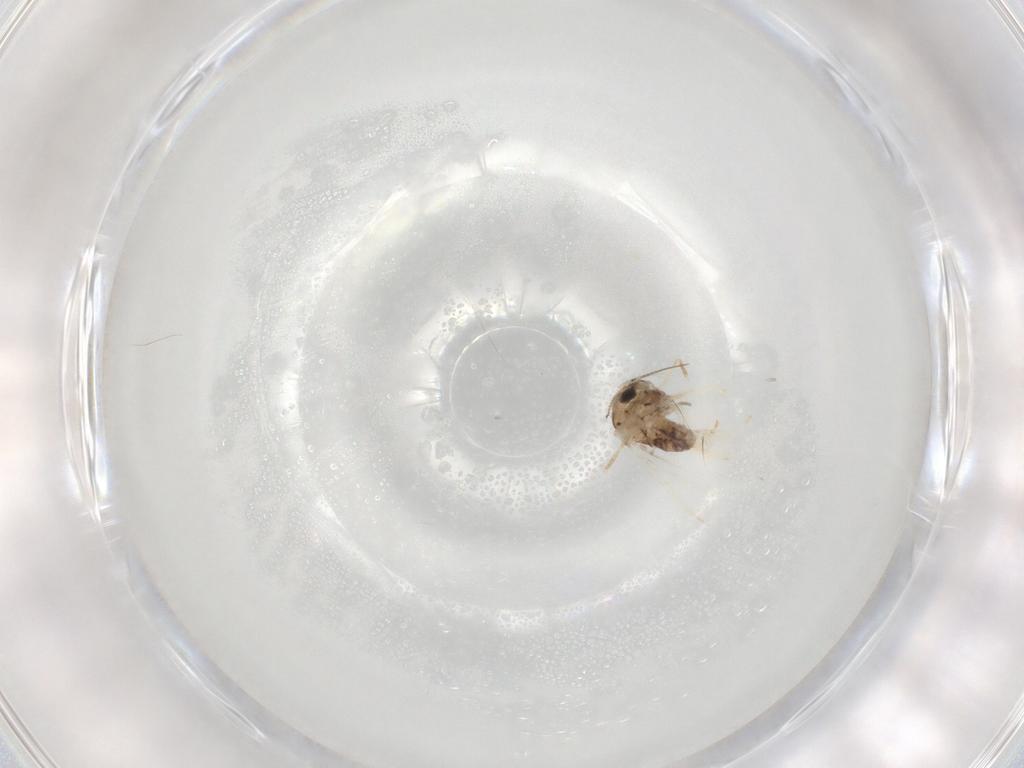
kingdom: Animalia
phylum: Arthropoda
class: Insecta
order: Diptera
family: Chironomidae
